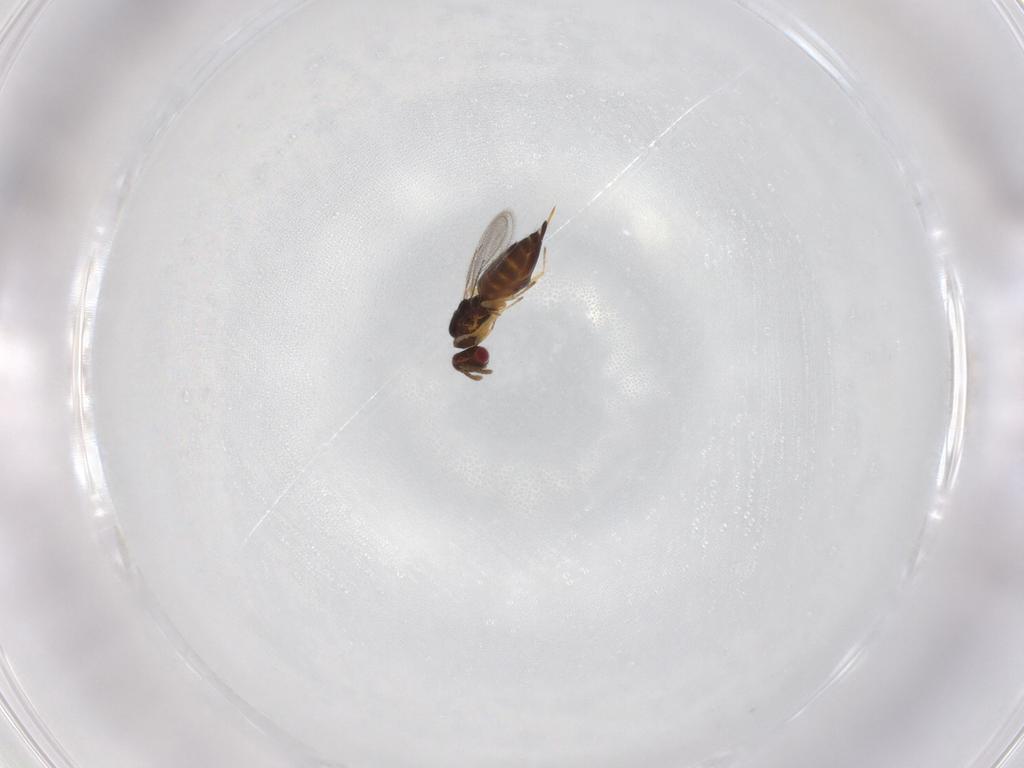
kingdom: Animalia
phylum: Arthropoda
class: Insecta
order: Hymenoptera
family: Eulophidae
